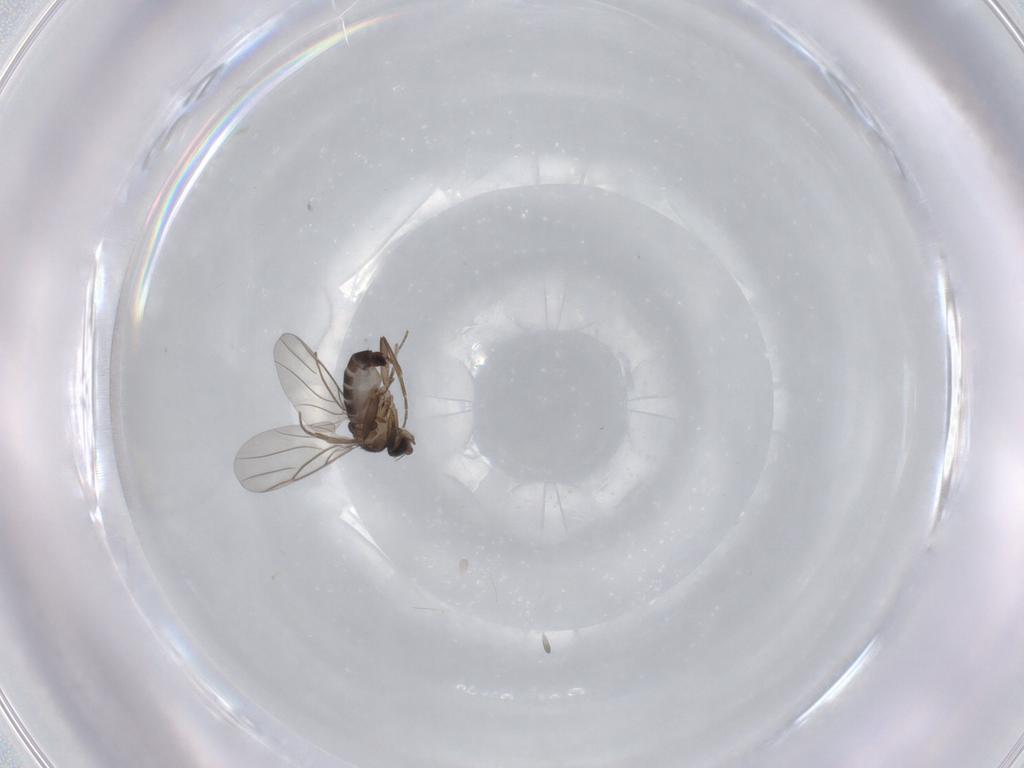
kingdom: Animalia
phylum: Arthropoda
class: Insecta
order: Diptera
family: Phoridae
